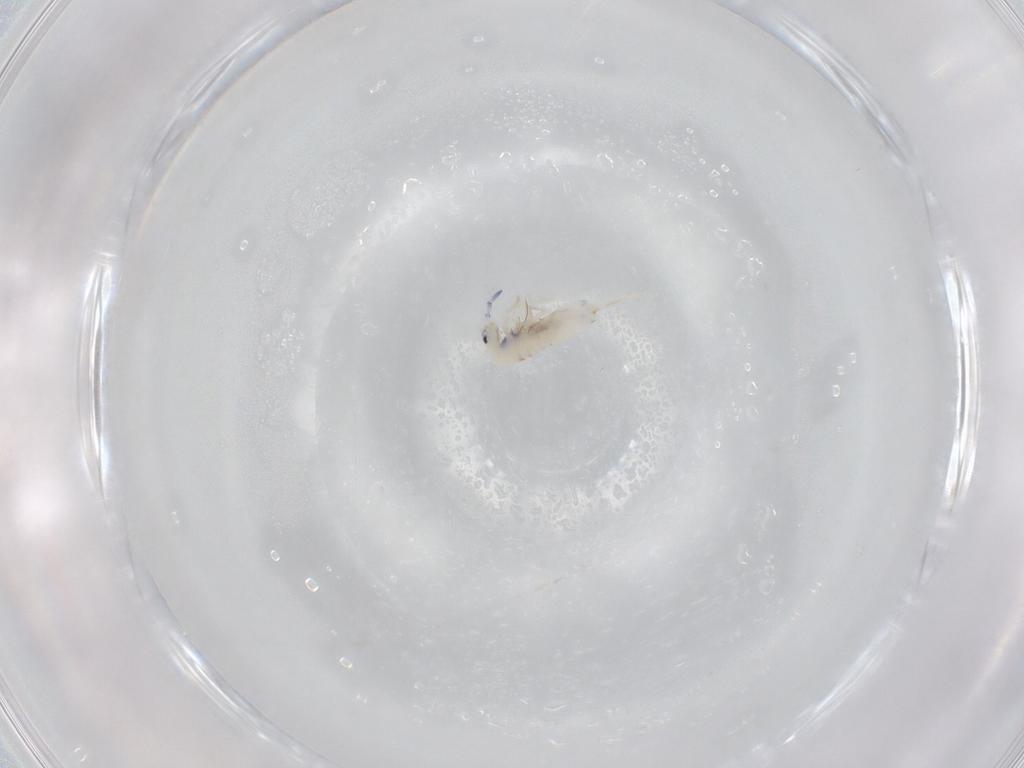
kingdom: Animalia
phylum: Arthropoda
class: Collembola
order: Entomobryomorpha
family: Entomobryidae
